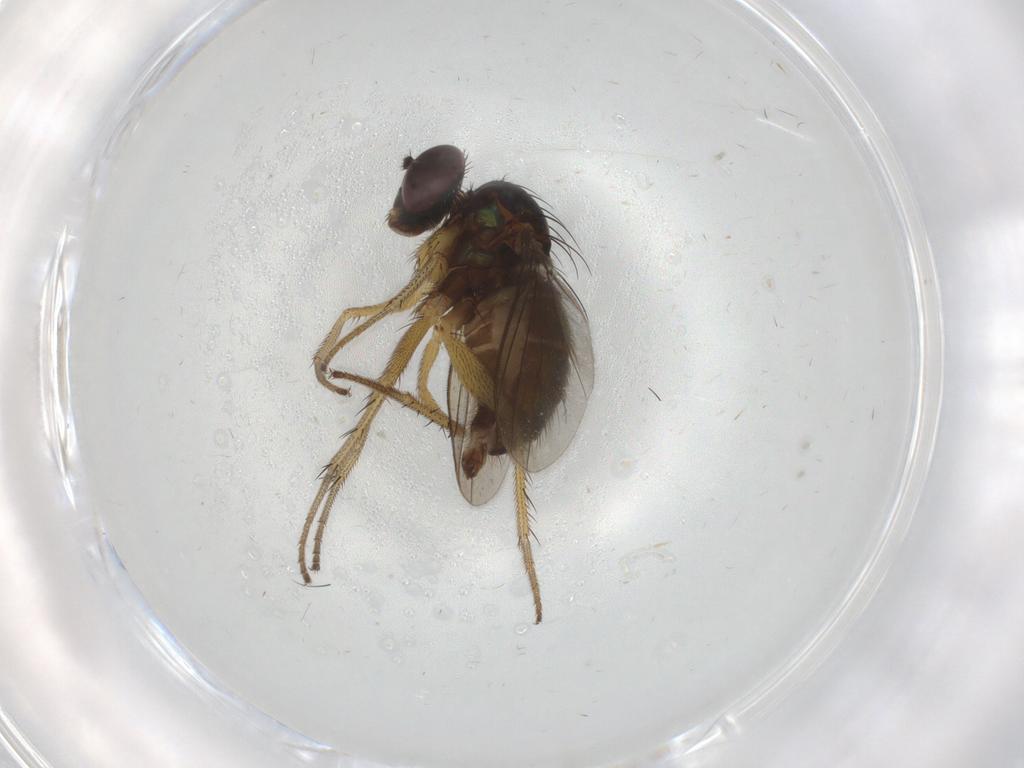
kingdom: Animalia
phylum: Arthropoda
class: Insecta
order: Diptera
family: Dolichopodidae
